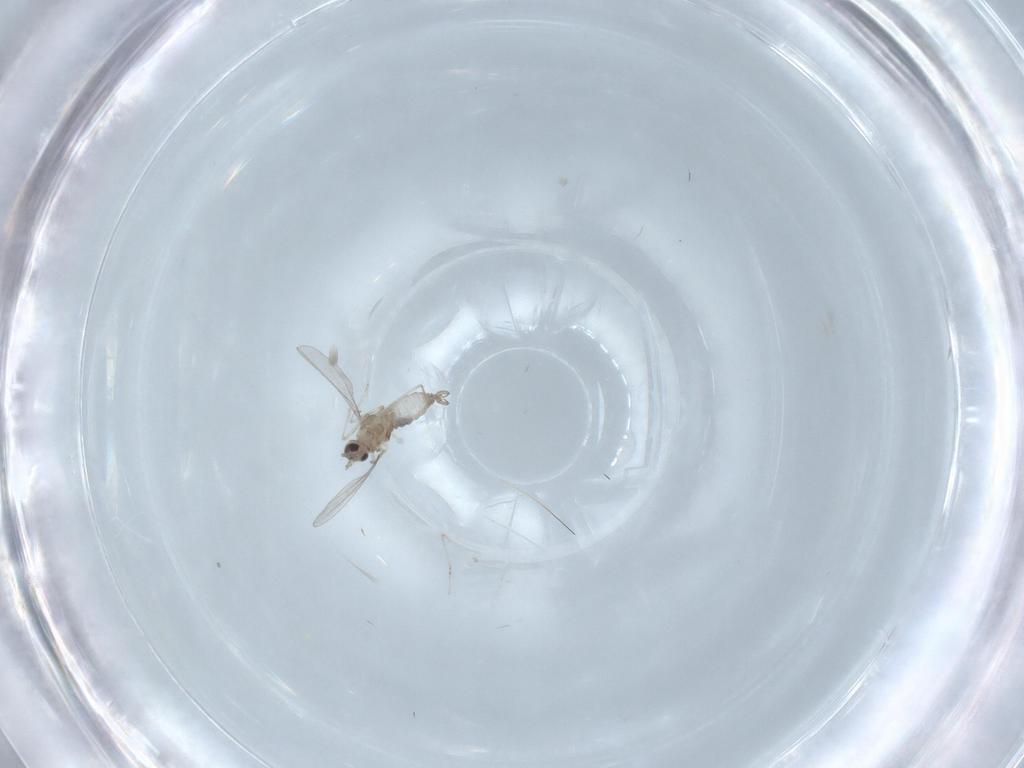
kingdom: Animalia
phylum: Arthropoda
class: Insecta
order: Diptera
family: Cecidomyiidae
